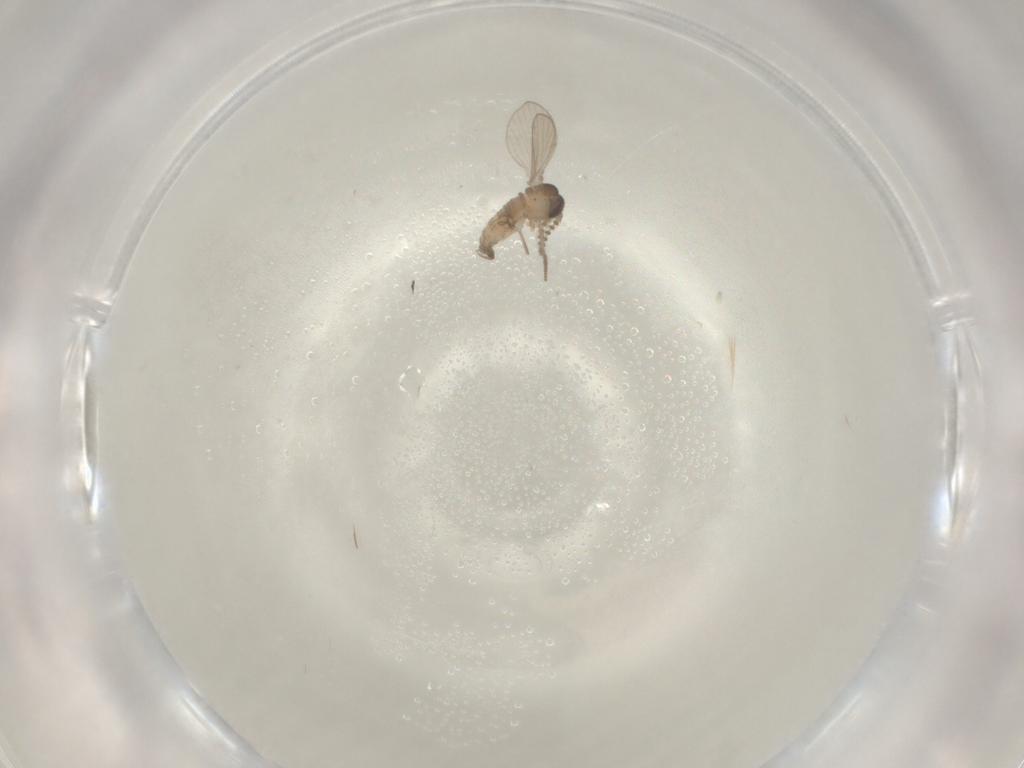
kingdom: Animalia
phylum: Arthropoda
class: Insecta
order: Diptera
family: Psychodidae
